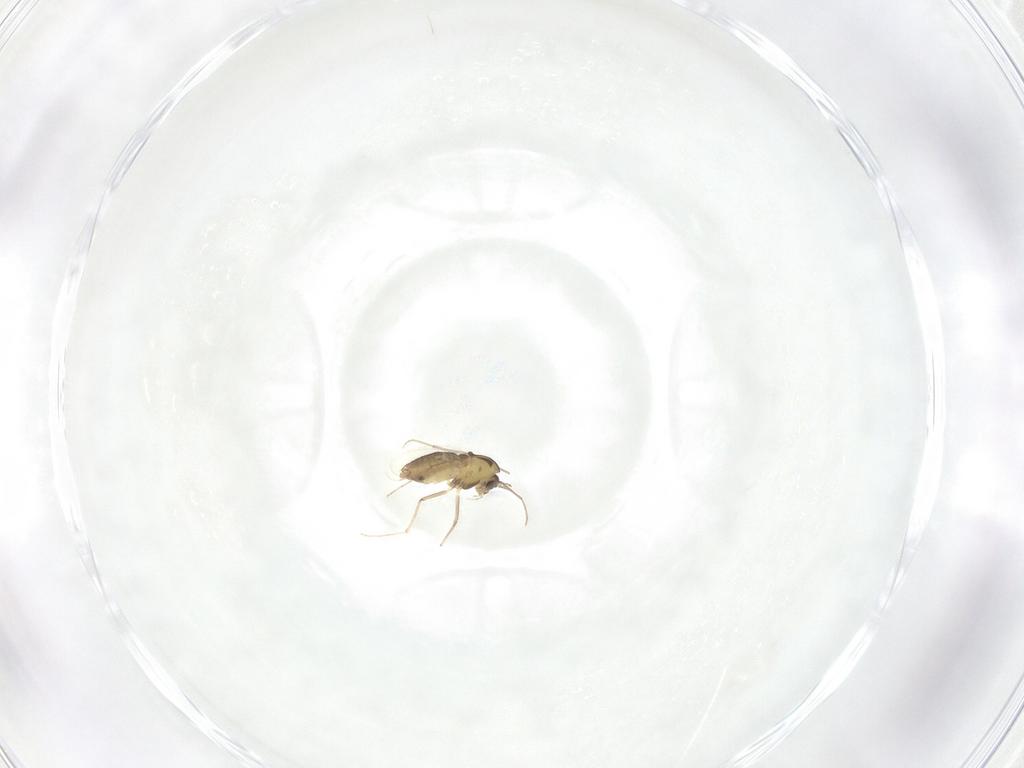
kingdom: Animalia
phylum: Arthropoda
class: Insecta
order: Diptera
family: Chironomidae
